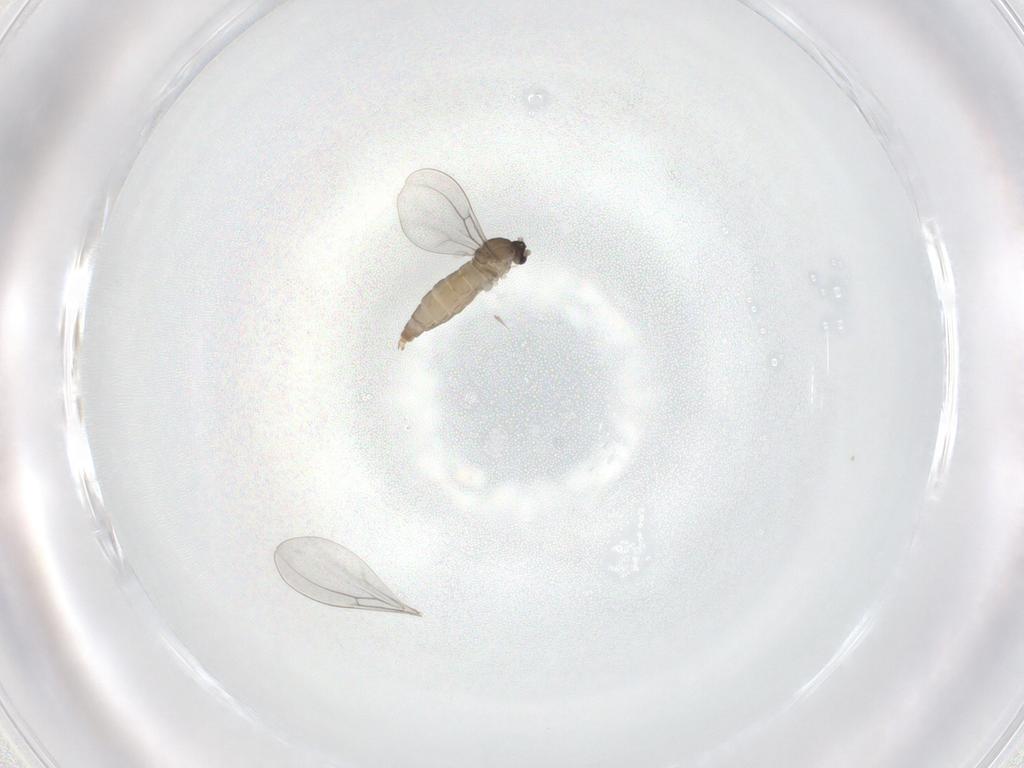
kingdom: Animalia
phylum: Arthropoda
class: Insecta
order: Diptera
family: Cecidomyiidae
